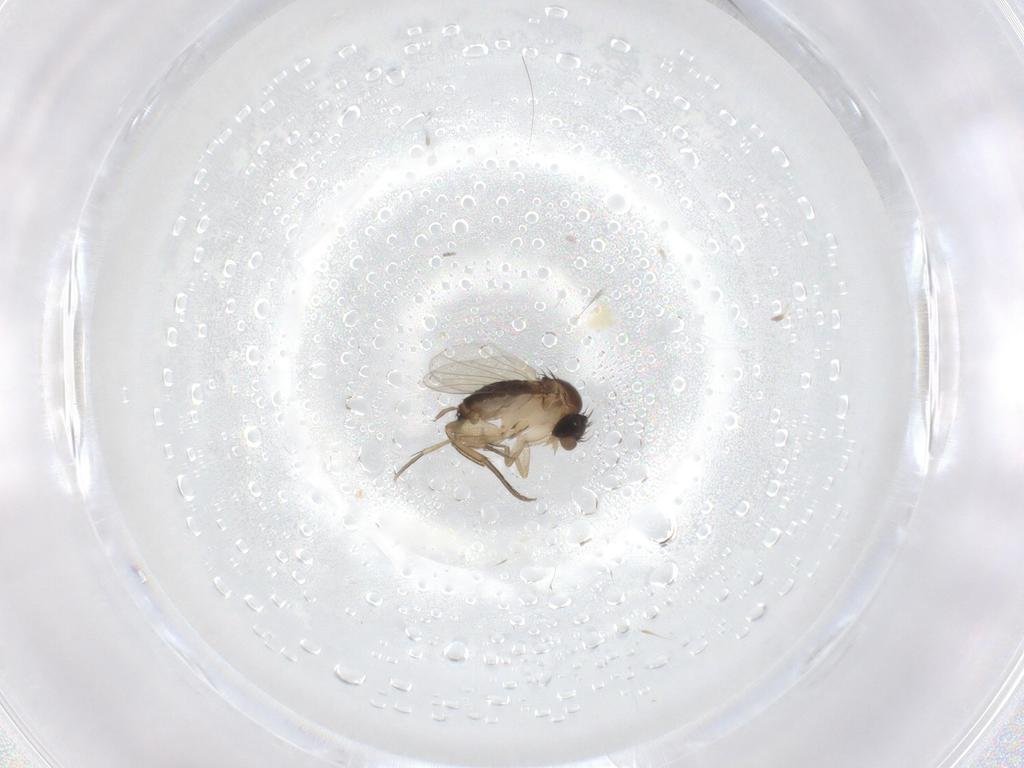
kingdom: Animalia
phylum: Arthropoda
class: Insecta
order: Diptera
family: Phoridae
